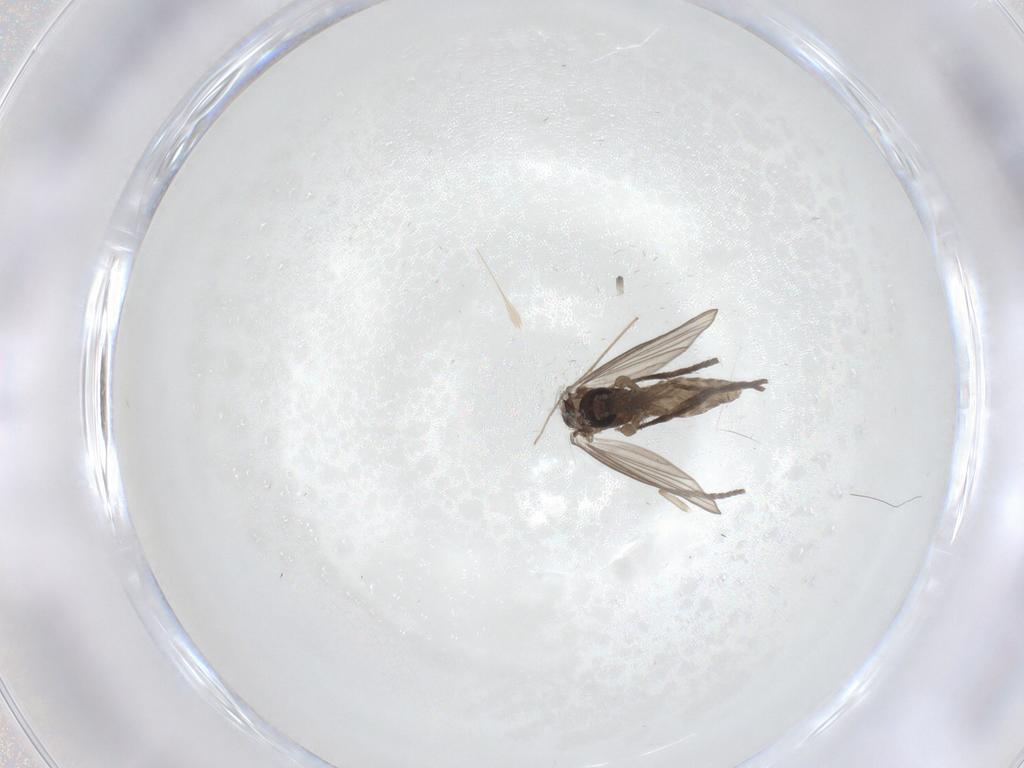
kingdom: Animalia
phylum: Arthropoda
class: Insecta
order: Diptera
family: Psychodidae
